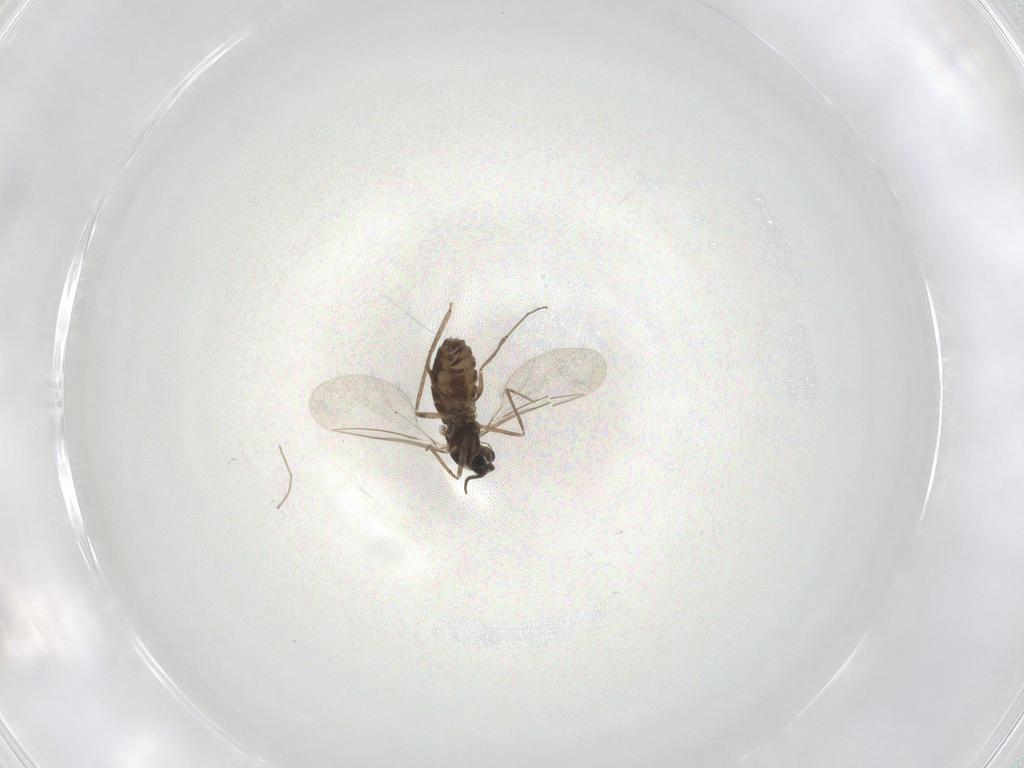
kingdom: Animalia
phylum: Arthropoda
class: Insecta
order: Diptera
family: Cecidomyiidae
